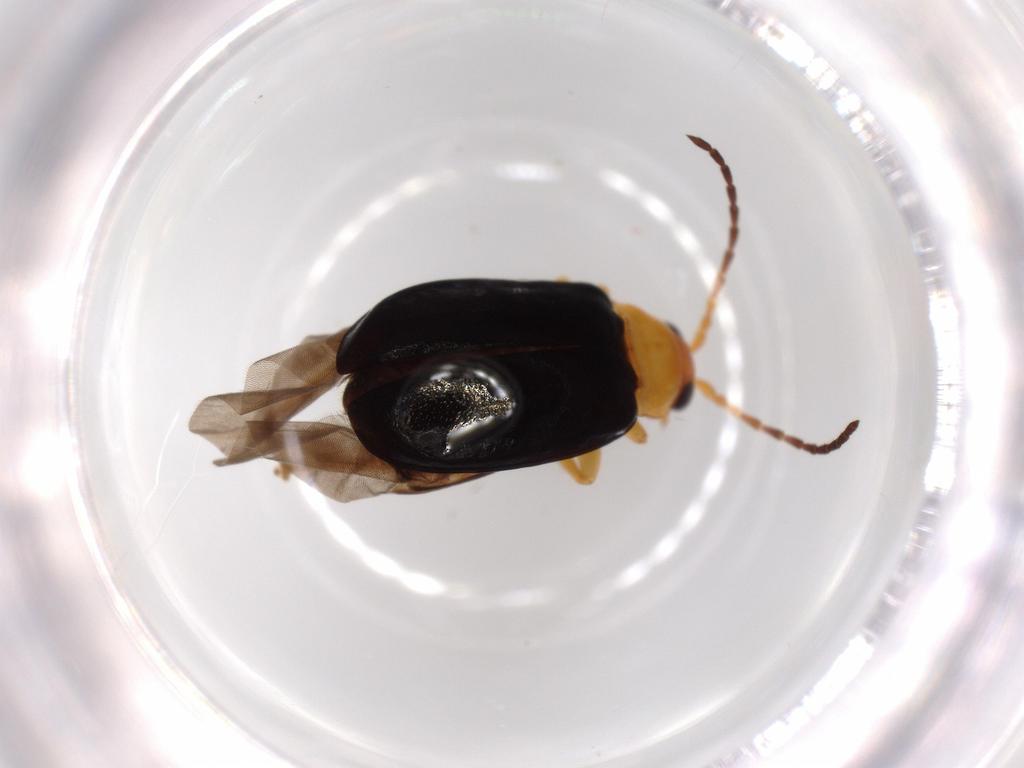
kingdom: Animalia
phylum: Arthropoda
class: Insecta
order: Coleoptera
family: Chrysomelidae
